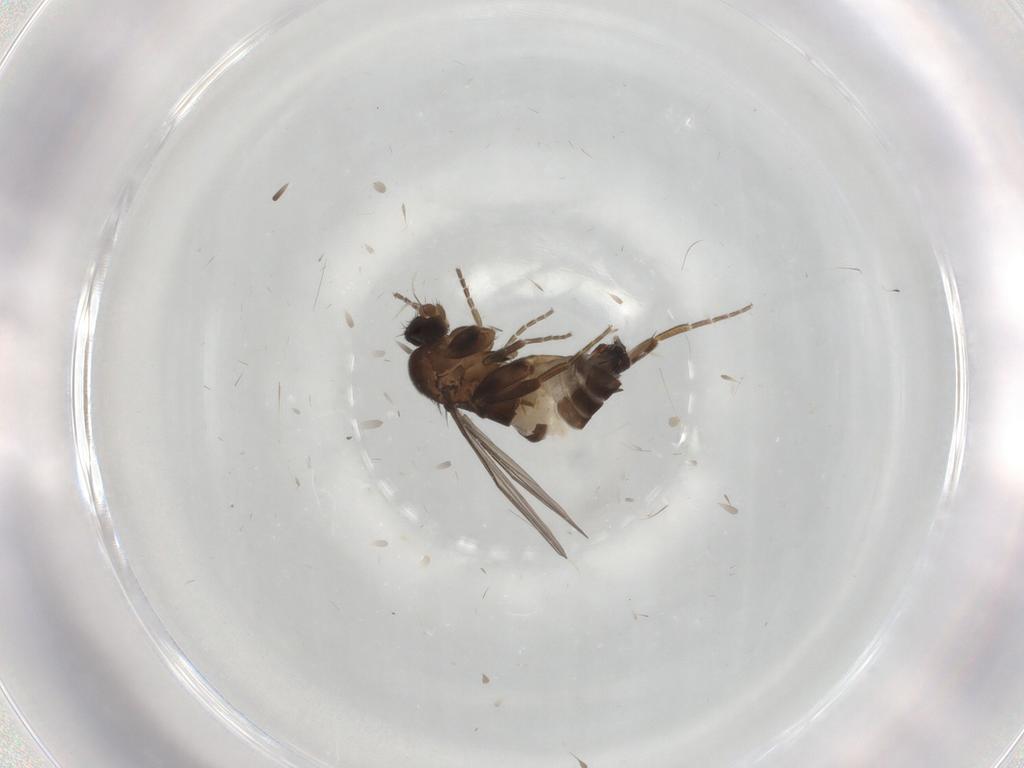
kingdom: Animalia
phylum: Arthropoda
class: Insecta
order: Diptera
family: Phoridae
